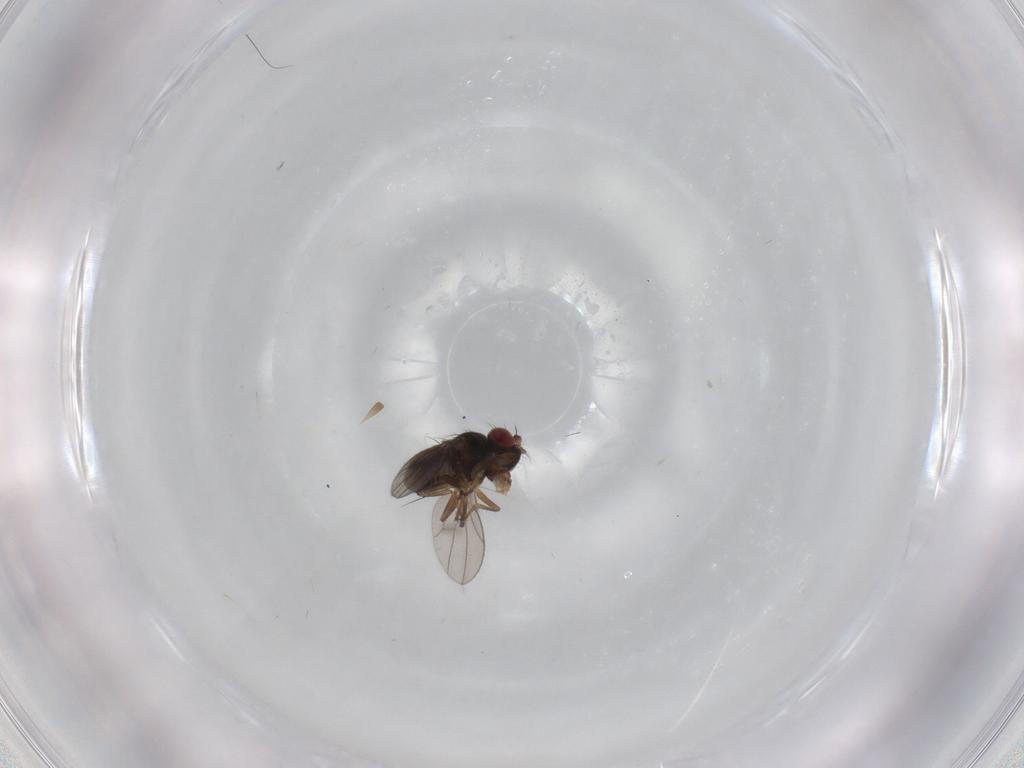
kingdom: Animalia
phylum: Arthropoda
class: Insecta
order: Diptera
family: Ephydridae
